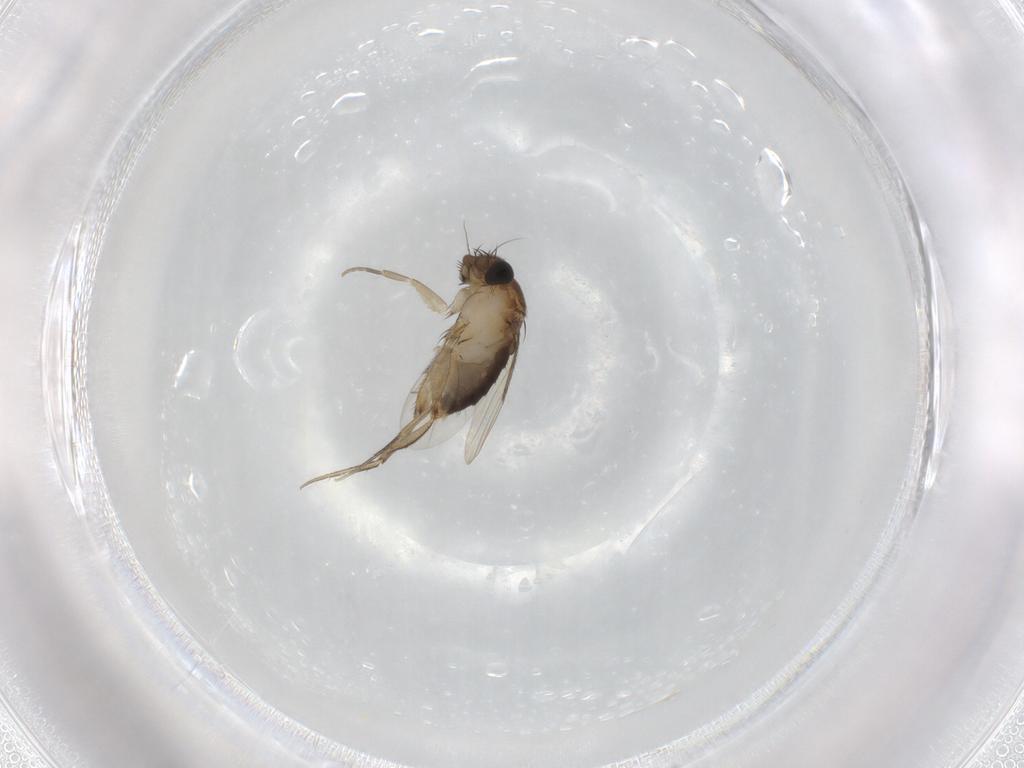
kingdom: Animalia
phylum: Arthropoda
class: Insecta
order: Diptera
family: Phoridae
